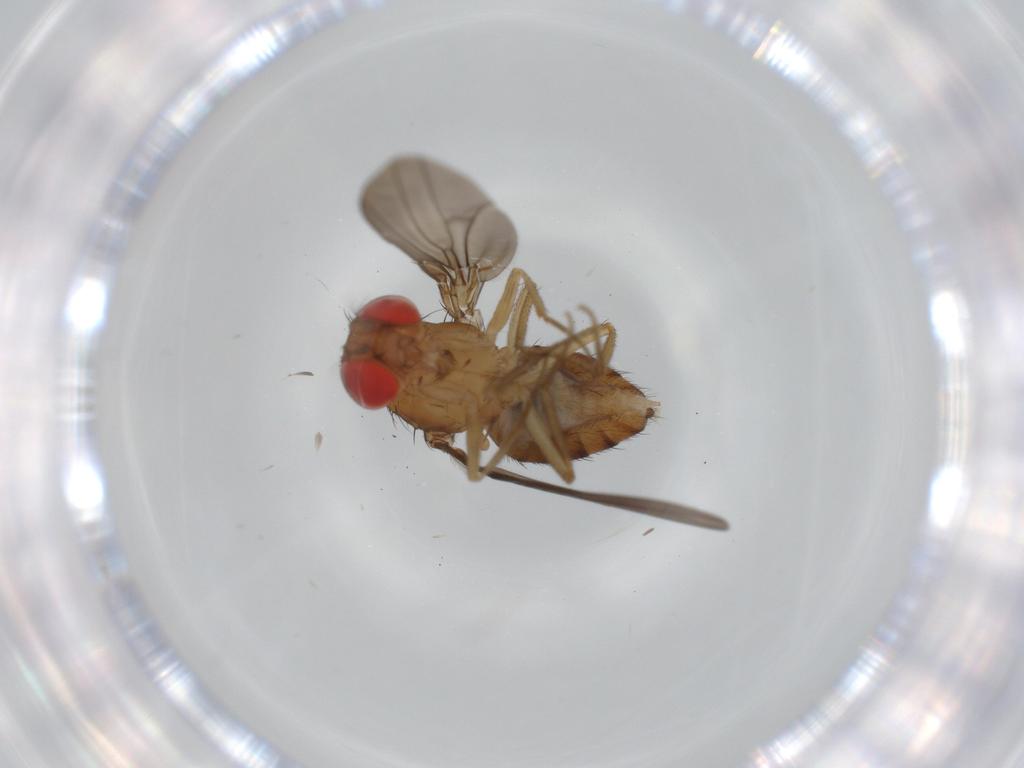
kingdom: Animalia
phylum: Arthropoda
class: Insecta
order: Diptera
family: Drosophilidae
